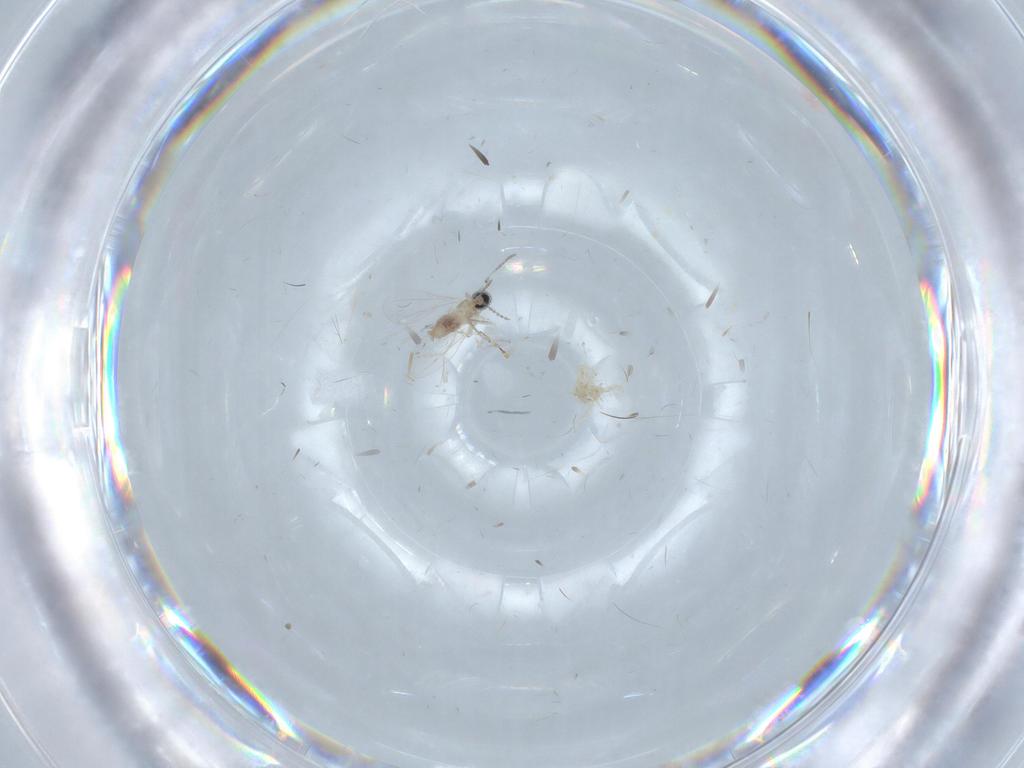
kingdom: Animalia
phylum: Arthropoda
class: Insecta
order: Diptera
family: Cecidomyiidae
